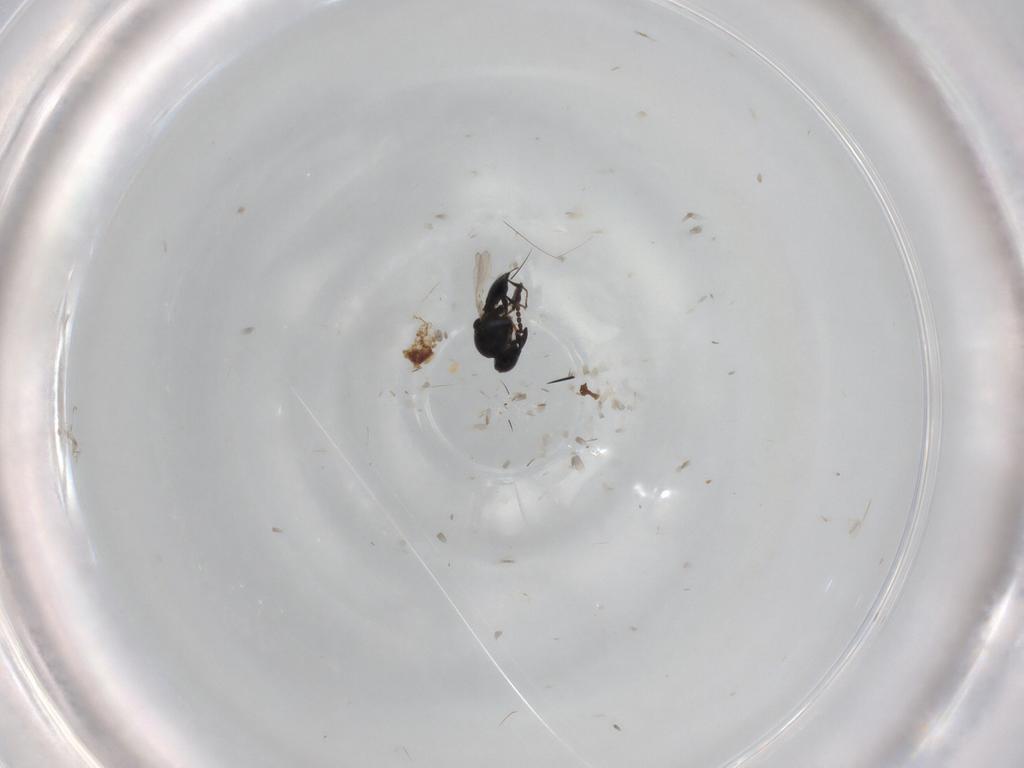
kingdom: Animalia
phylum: Arthropoda
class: Insecta
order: Hymenoptera
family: Platygastridae
